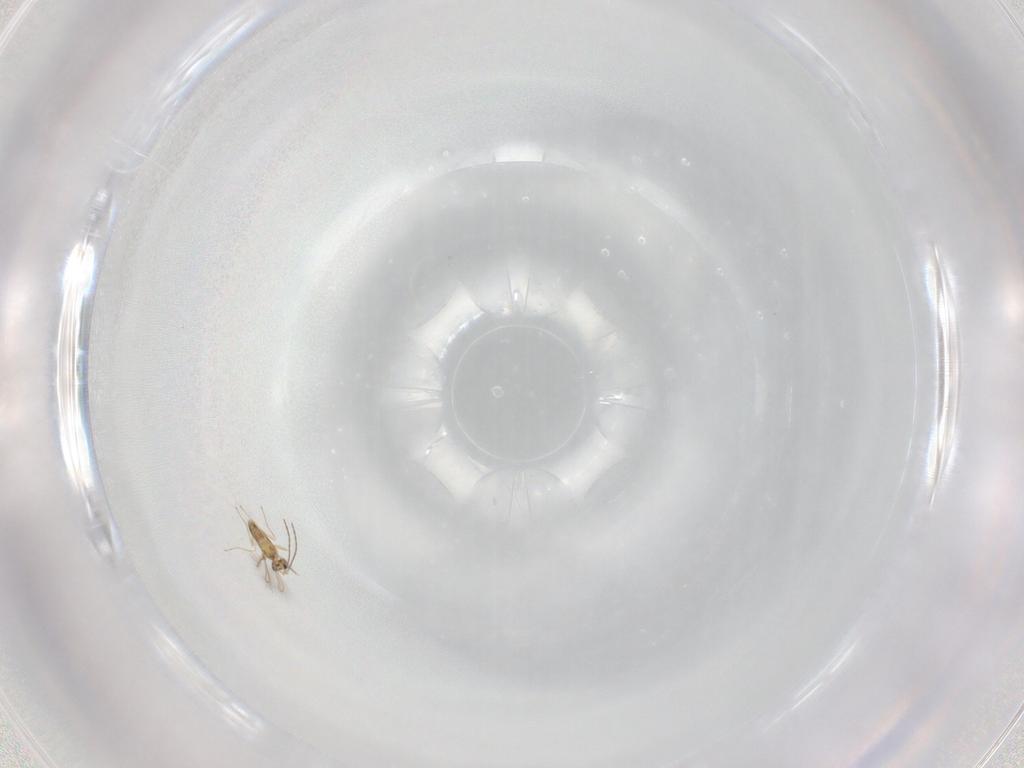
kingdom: Animalia
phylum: Arthropoda
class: Insecta
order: Hymenoptera
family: Mymaridae
